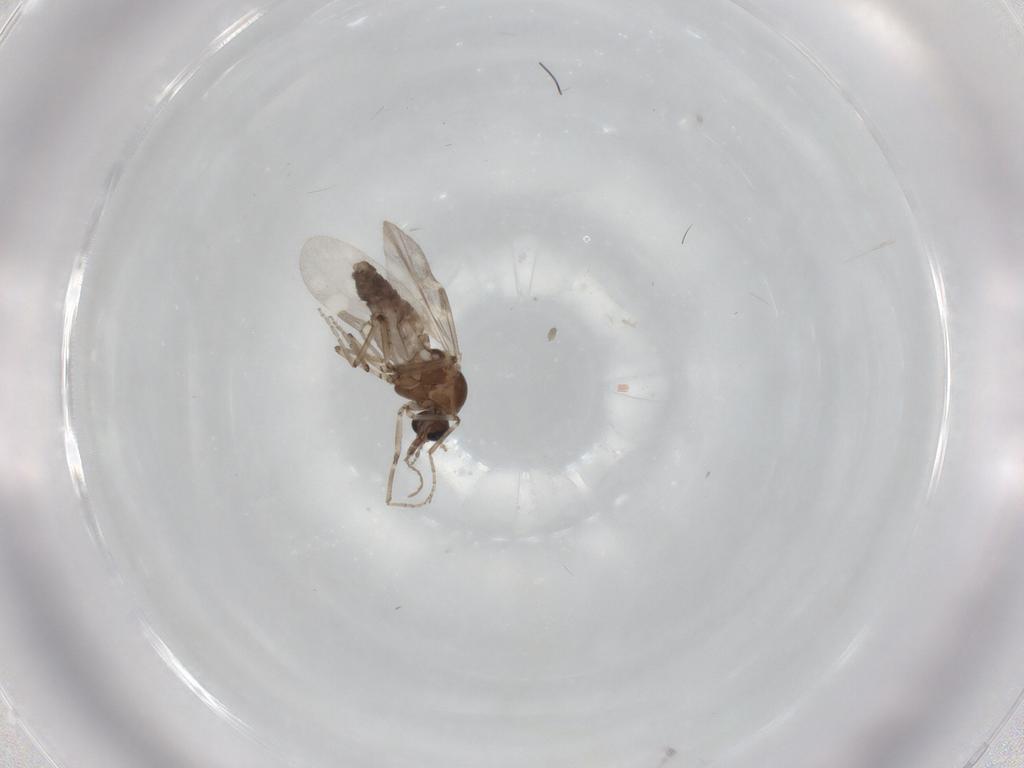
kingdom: Animalia
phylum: Arthropoda
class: Insecta
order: Diptera
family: Ceratopogonidae
